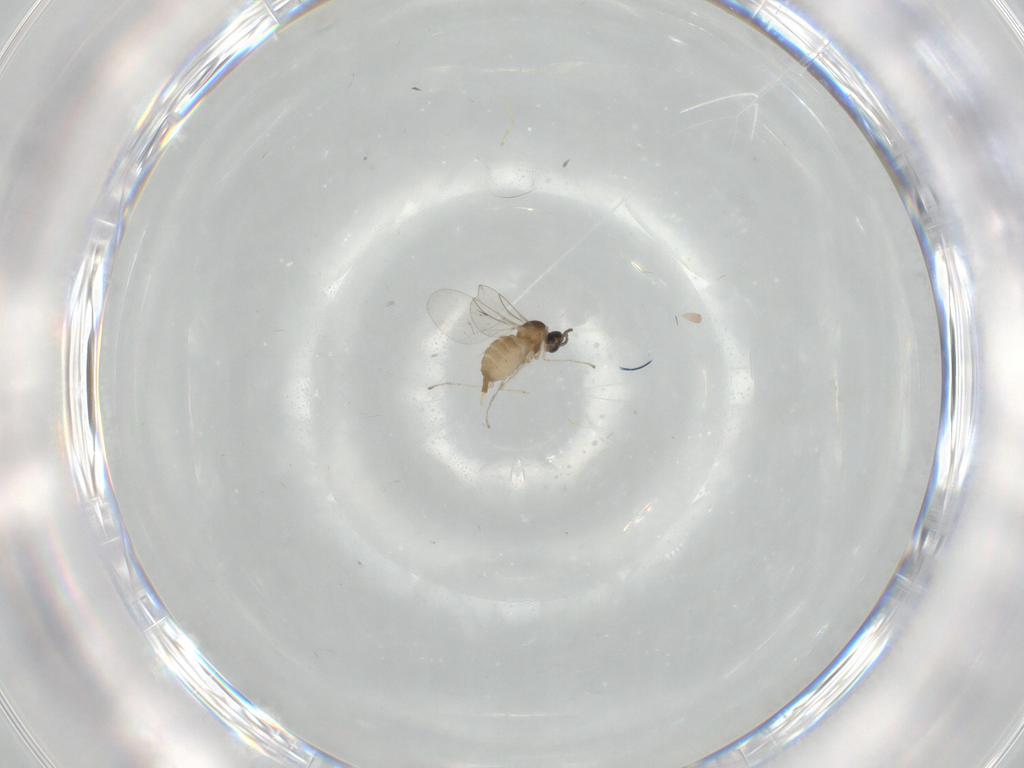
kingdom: Animalia
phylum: Arthropoda
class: Insecta
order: Diptera
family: Cecidomyiidae
